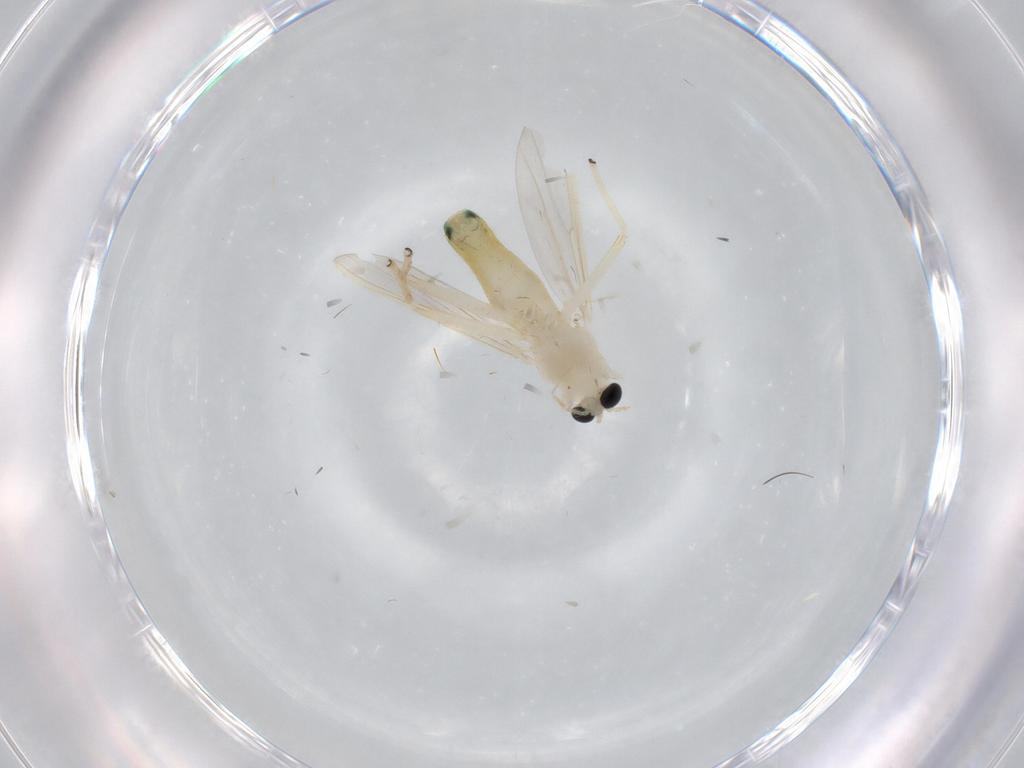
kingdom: Animalia
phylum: Arthropoda
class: Insecta
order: Diptera
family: Chironomidae
